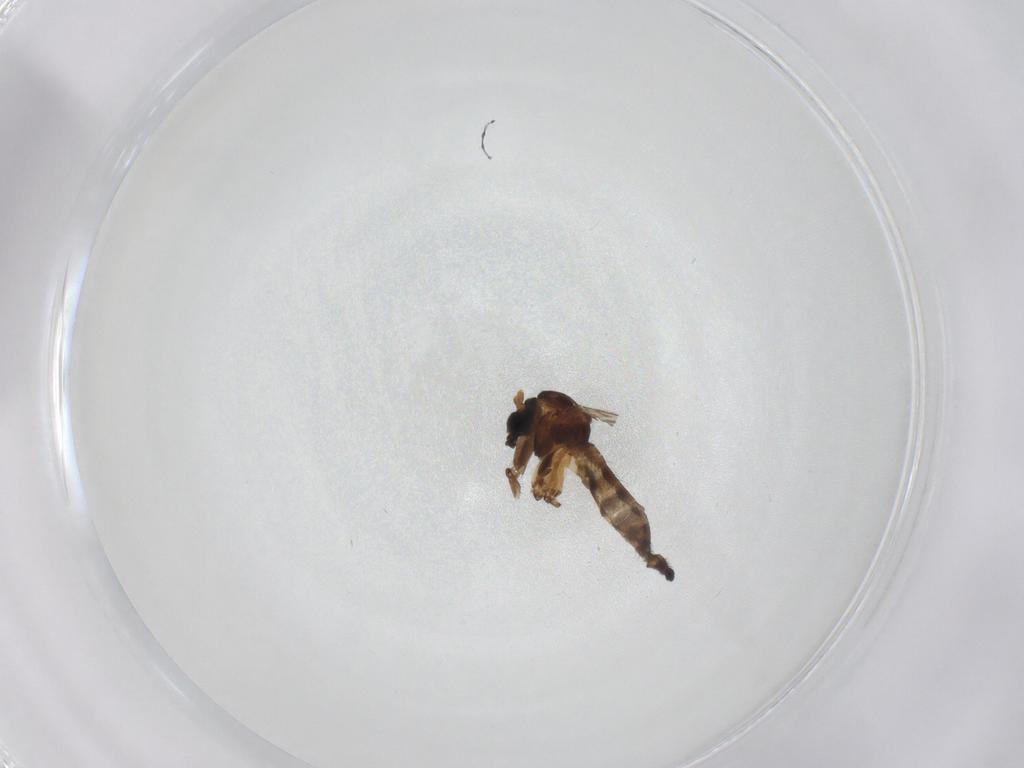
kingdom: Animalia
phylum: Arthropoda
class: Insecta
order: Diptera
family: Sciaridae
